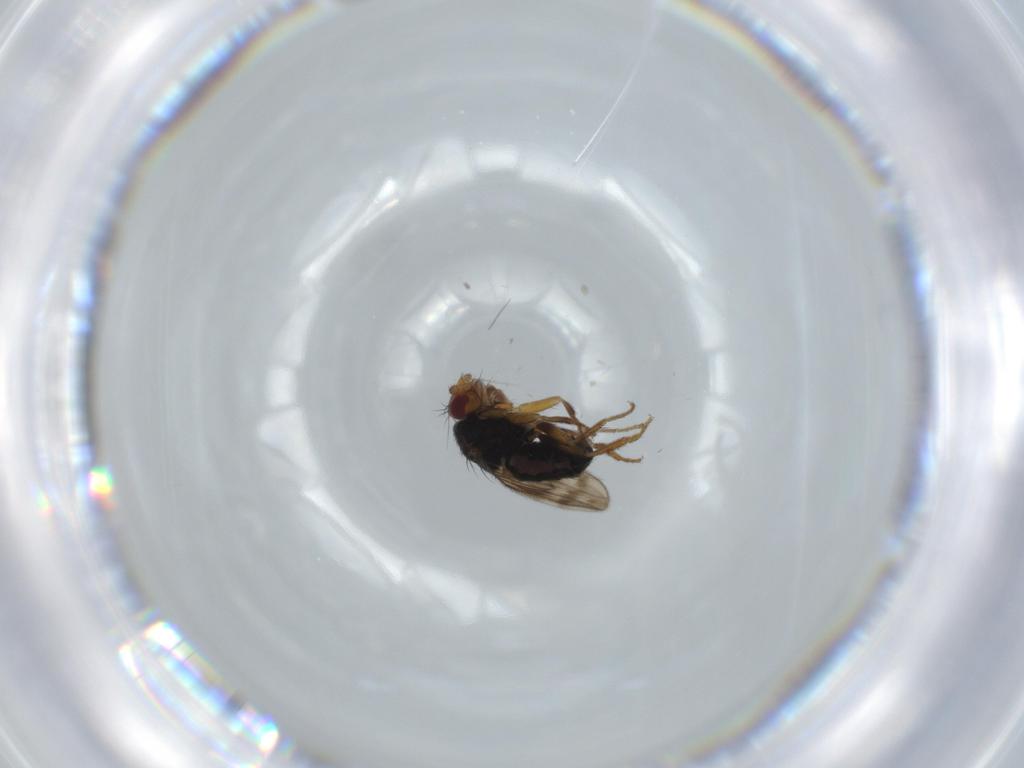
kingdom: Animalia
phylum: Arthropoda
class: Insecta
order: Diptera
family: Sphaeroceridae
